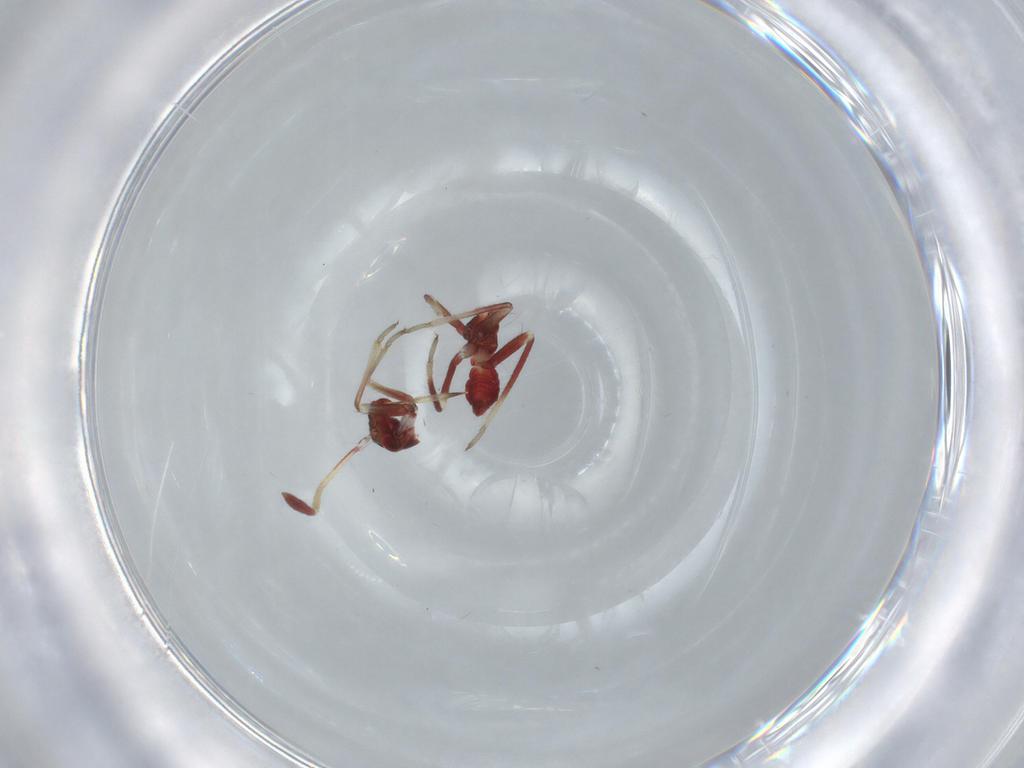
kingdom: Animalia
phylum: Arthropoda
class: Insecta
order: Hemiptera
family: Miridae
